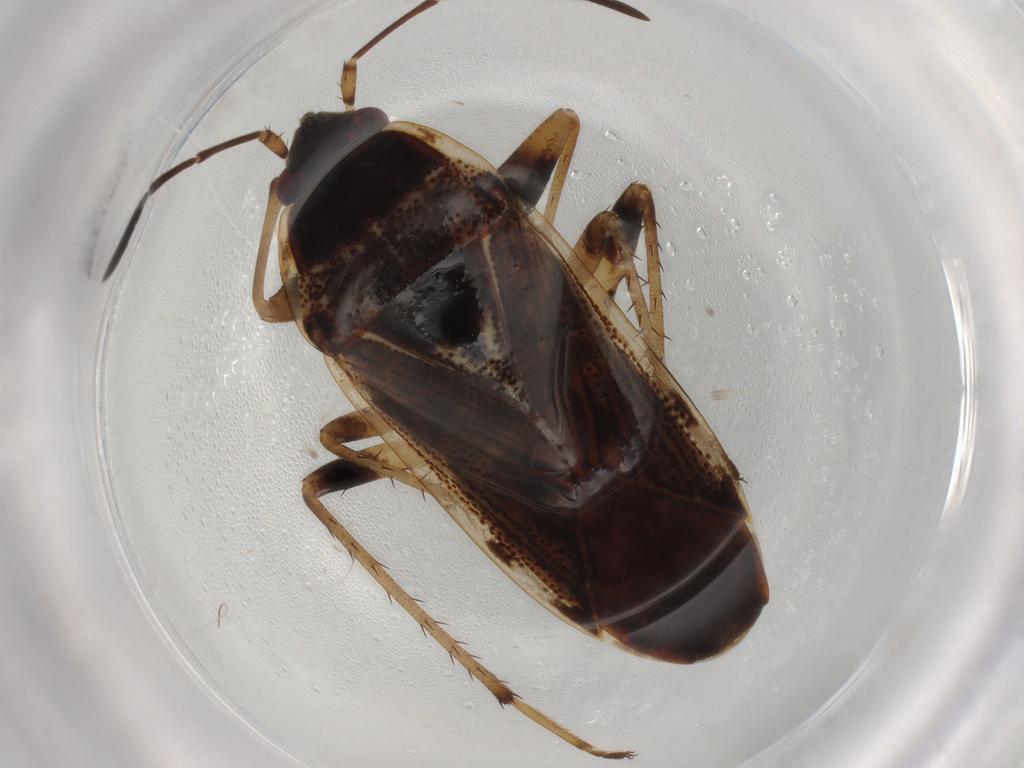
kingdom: Animalia
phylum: Arthropoda
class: Insecta
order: Hemiptera
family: Rhyparochromidae
